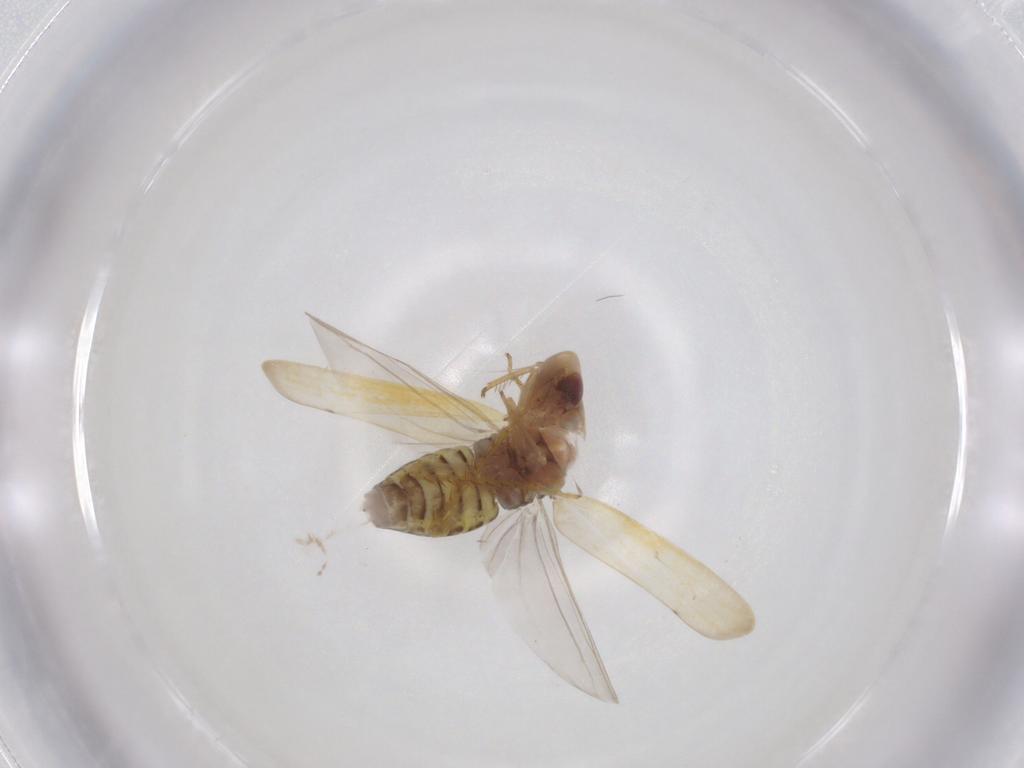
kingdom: Animalia
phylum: Arthropoda
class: Insecta
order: Hemiptera
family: Cicadellidae
